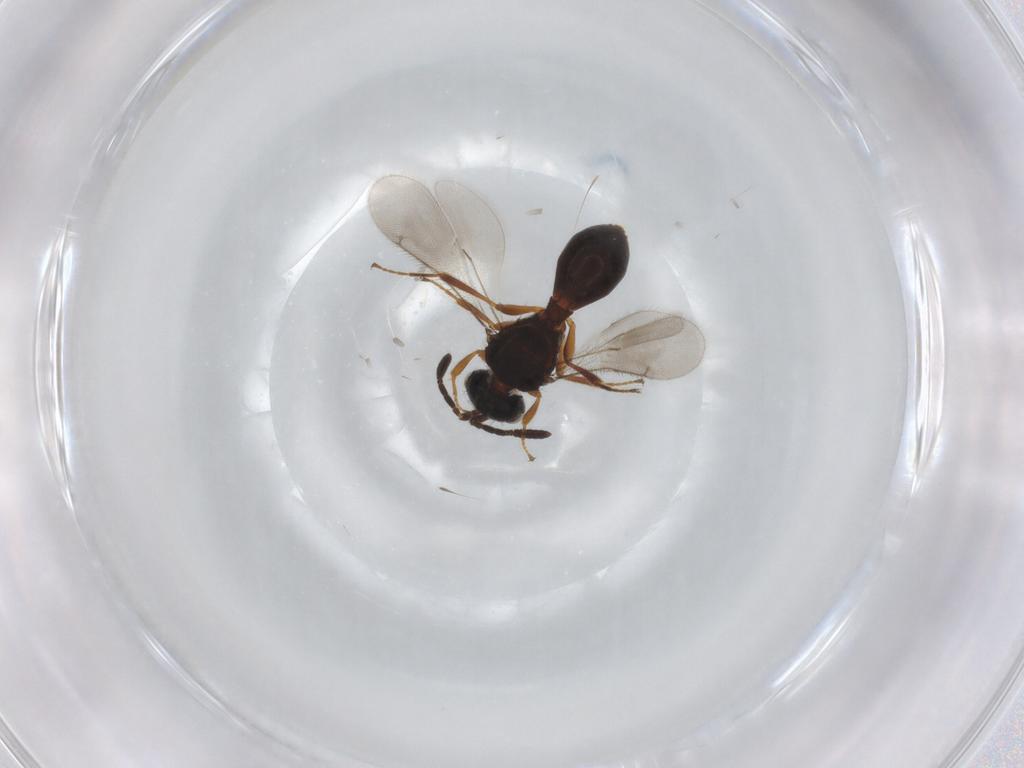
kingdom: Animalia
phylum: Arthropoda
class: Insecta
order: Hymenoptera
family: Scelionidae
